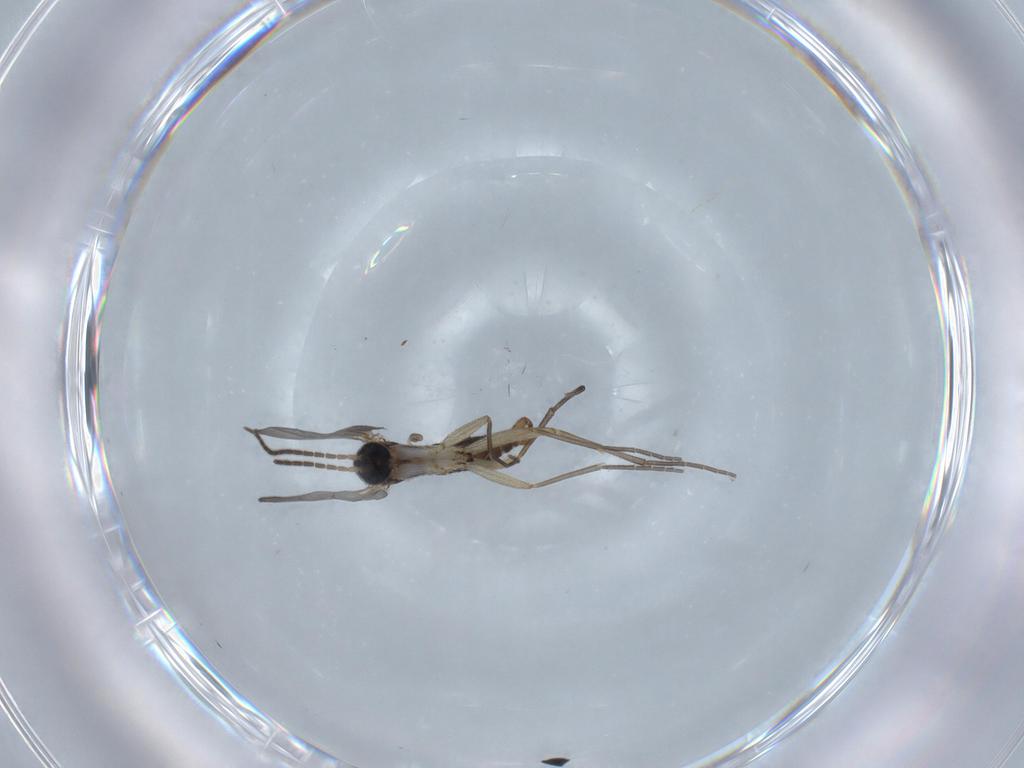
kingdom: Animalia
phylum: Arthropoda
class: Insecta
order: Diptera
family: Sciaridae
